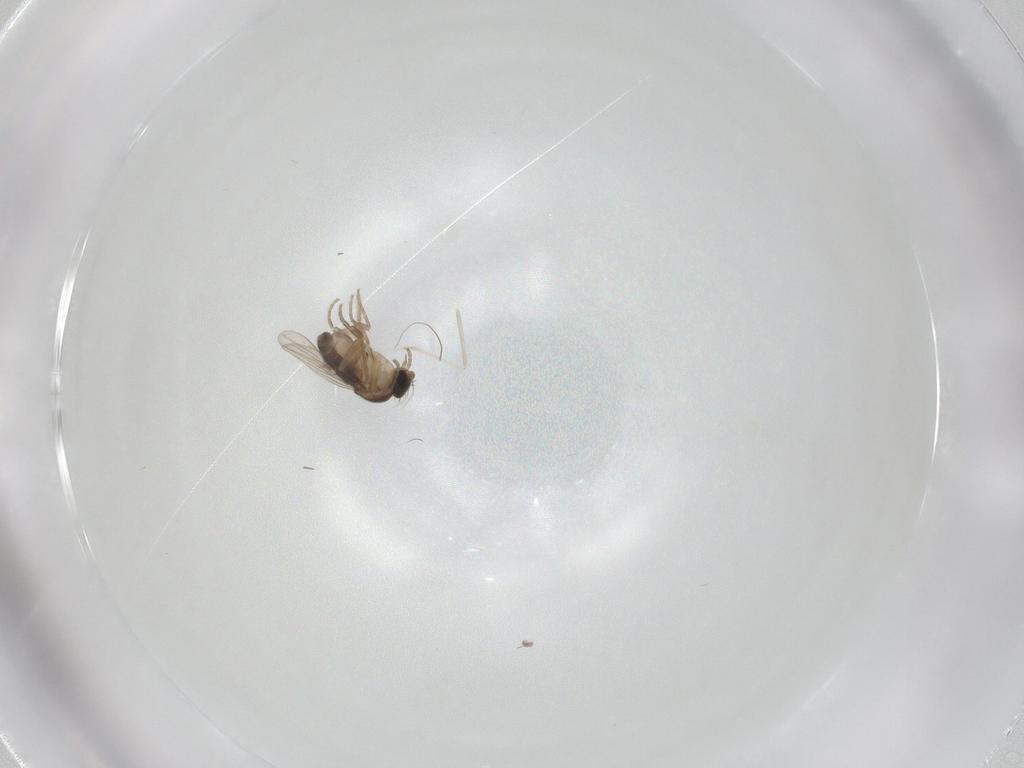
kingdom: Animalia
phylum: Arthropoda
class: Insecta
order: Diptera
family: Chironomidae
